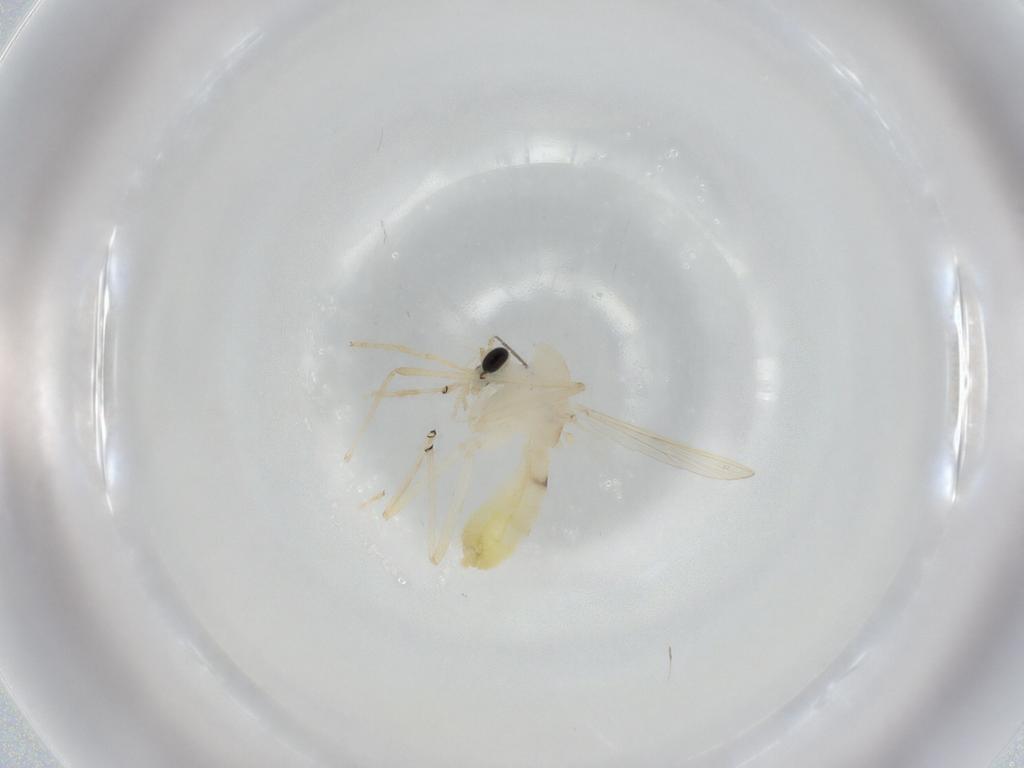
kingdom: Animalia
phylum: Arthropoda
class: Insecta
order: Diptera
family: Chironomidae
